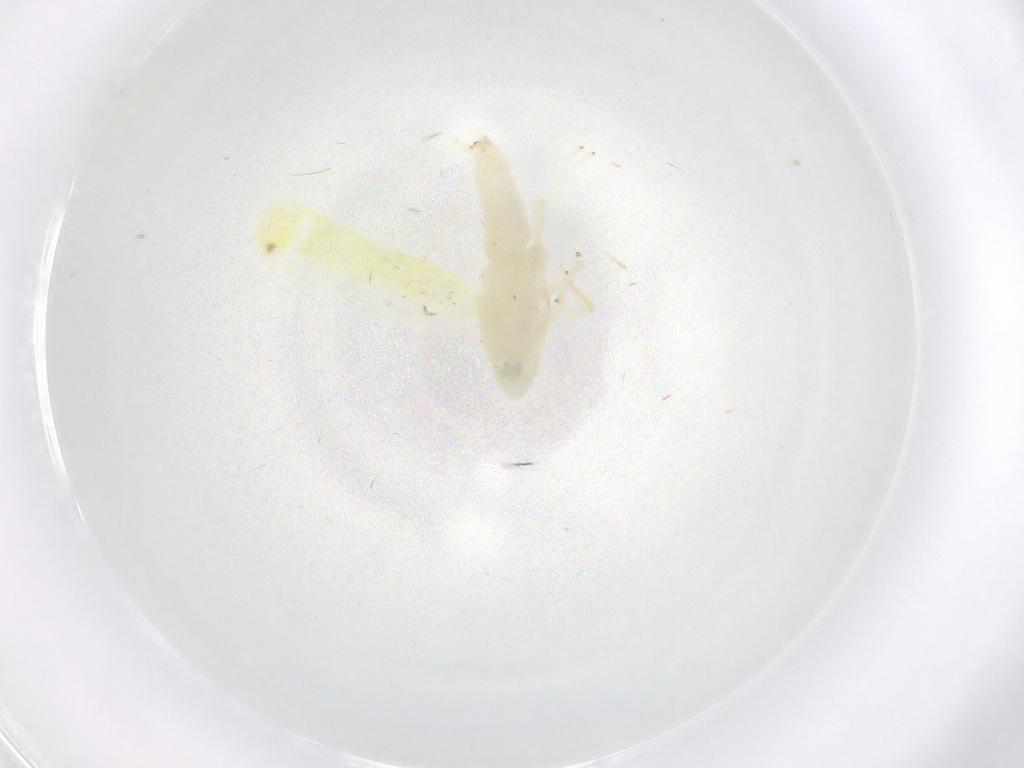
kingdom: Animalia
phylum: Arthropoda
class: Insecta
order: Hemiptera
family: Cicadellidae
